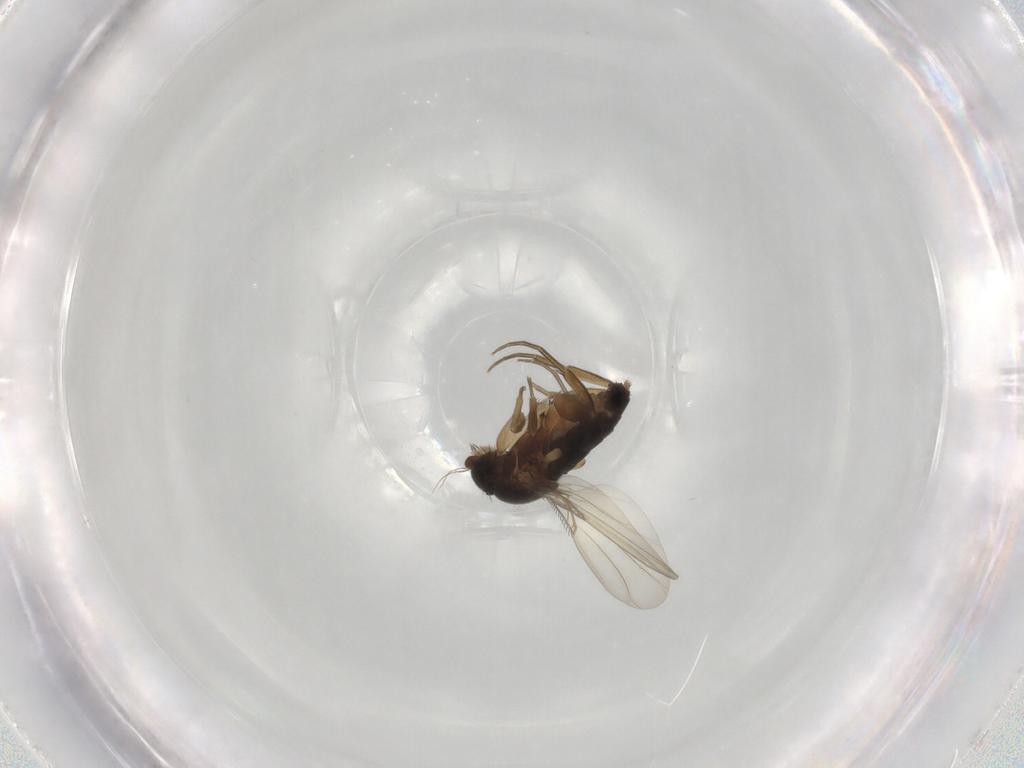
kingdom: Animalia
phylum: Arthropoda
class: Insecta
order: Diptera
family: Phoridae
